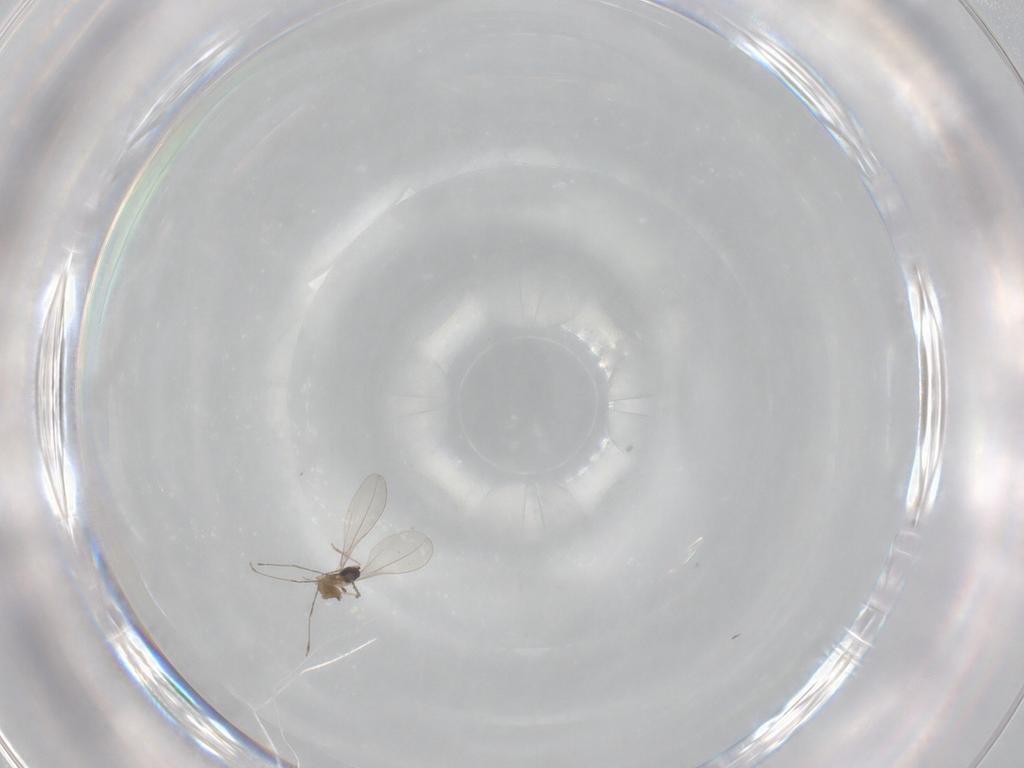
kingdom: Animalia
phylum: Arthropoda
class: Insecta
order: Diptera
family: Cecidomyiidae
